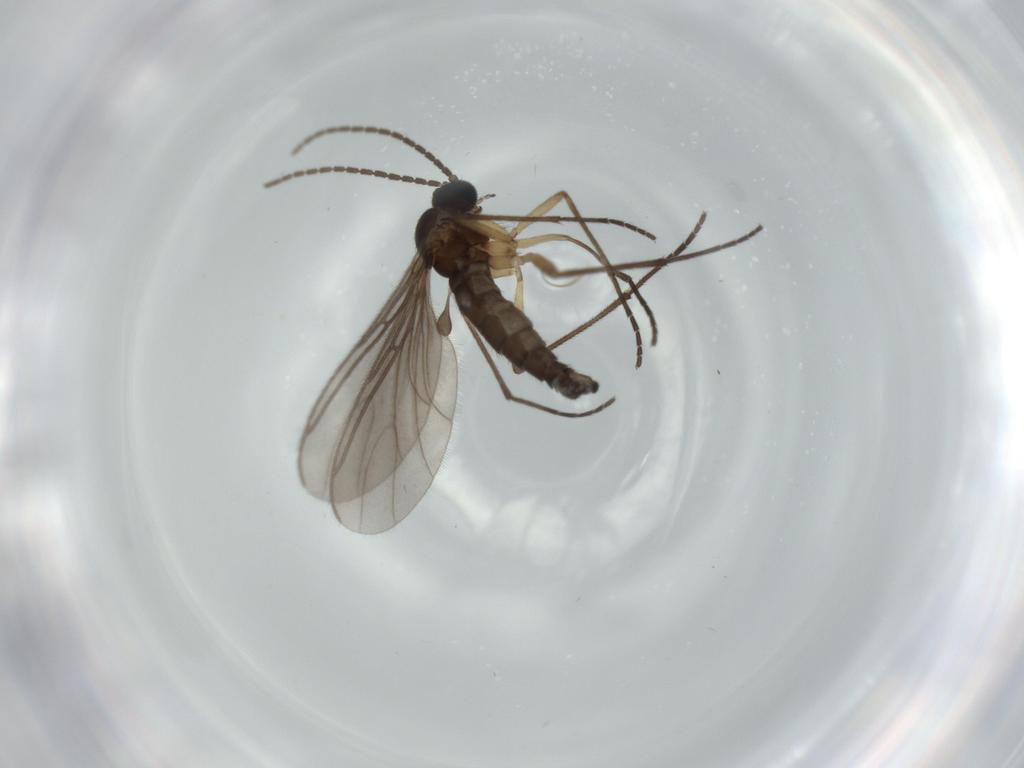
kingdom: Animalia
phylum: Arthropoda
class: Insecta
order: Diptera
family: Sciaridae
